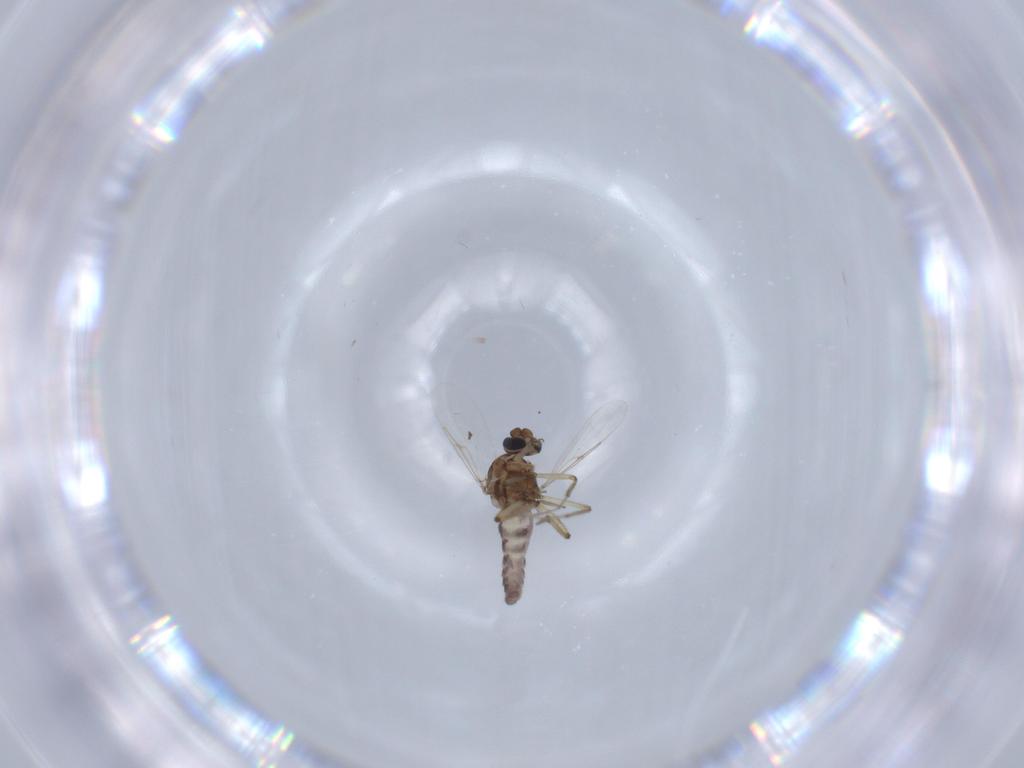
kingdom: Animalia
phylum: Arthropoda
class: Insecta
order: Diptera
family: Ceratopogonidae
